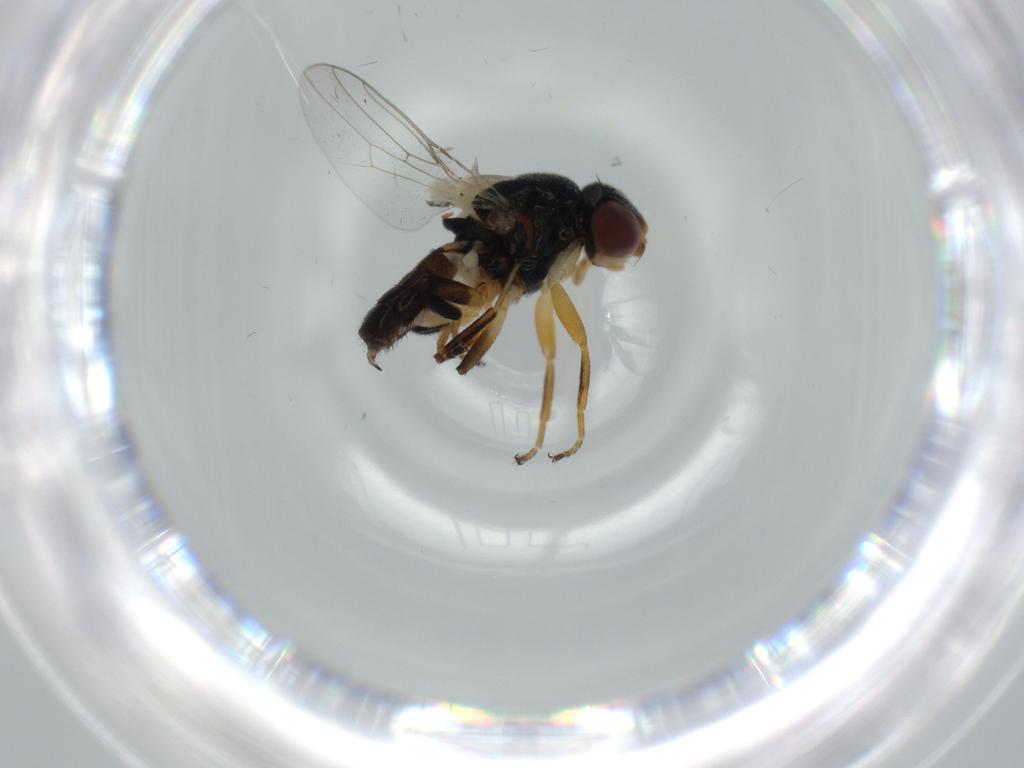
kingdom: Animalia
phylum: Arthropoda
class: Insecta
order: Diptera
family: Chloropidae
